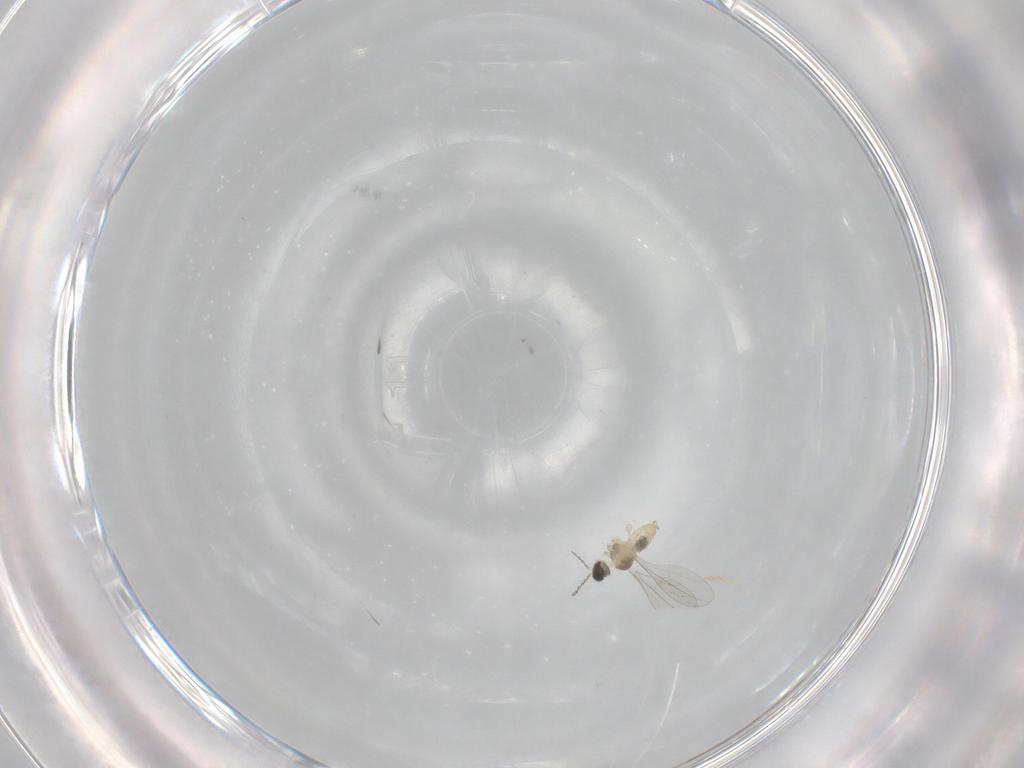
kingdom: Animalia
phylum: Arthropoda
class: Insecta
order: Diptera
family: Cecidomyiidae
